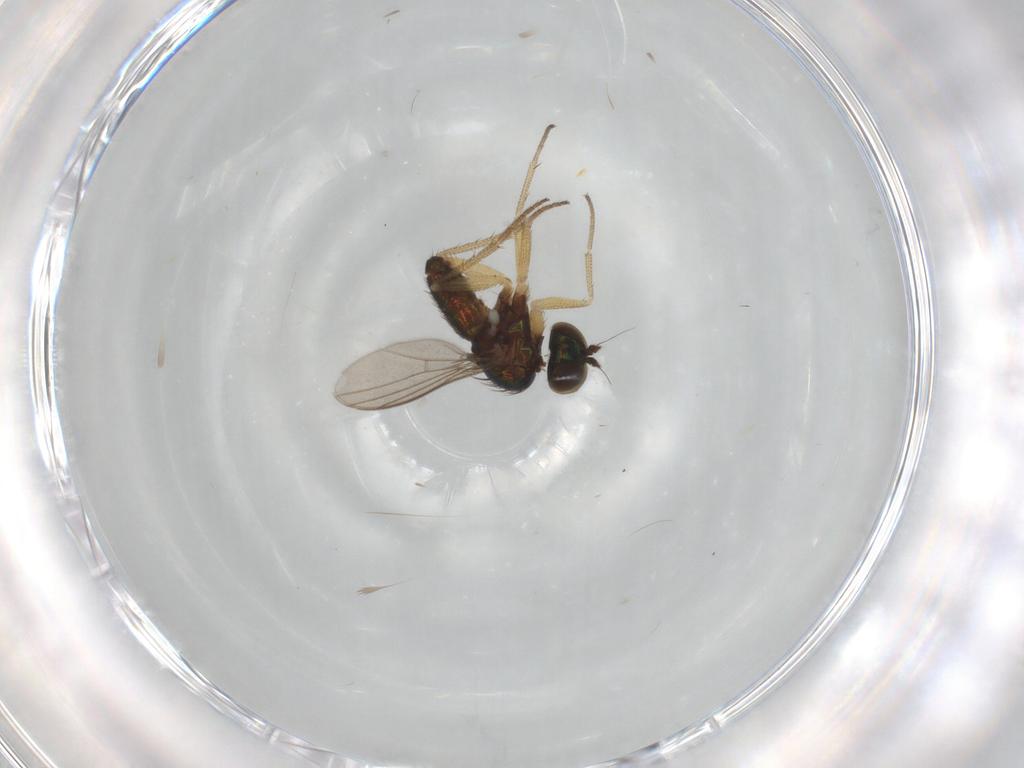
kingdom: Animalia
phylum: Arthropoda
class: Insecta
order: Diptera
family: Dolichopodidae
